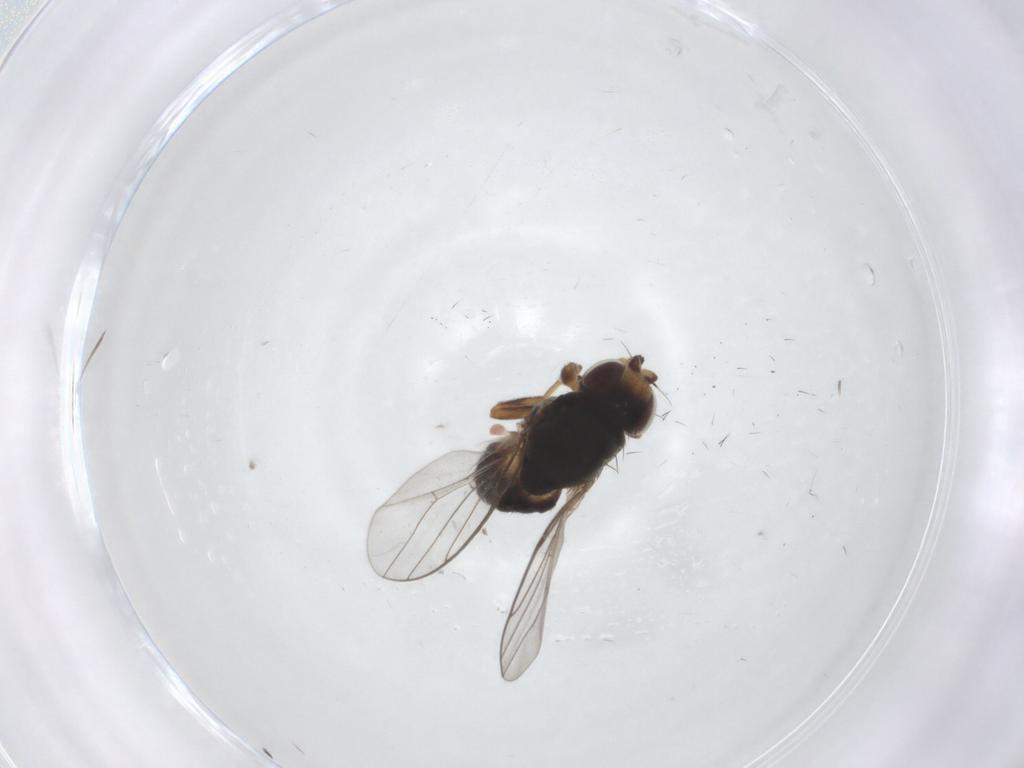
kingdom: Animalia
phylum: Arthropoda
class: Insecta
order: Diptera
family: Chloropidae
